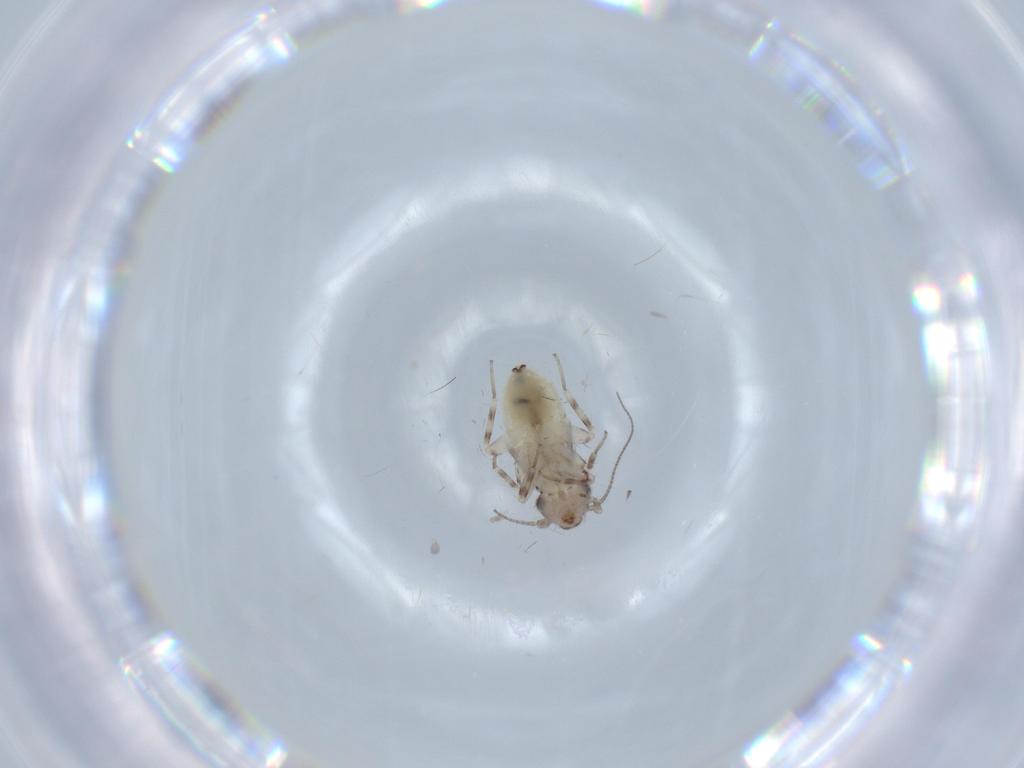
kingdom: Animalia
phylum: Arthropoda
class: Insecta
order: Psocodea
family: Lepidopsocidae
